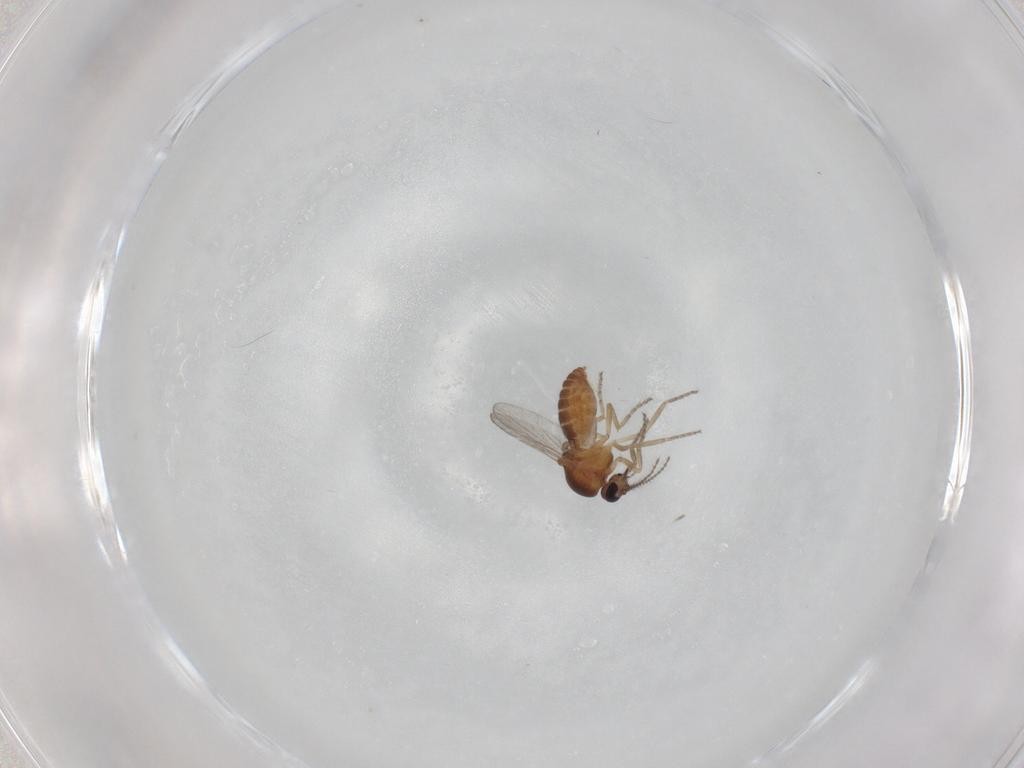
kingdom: Animalia
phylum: Arthropoda
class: Insecta
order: Diptera
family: Ceratopogonidae
